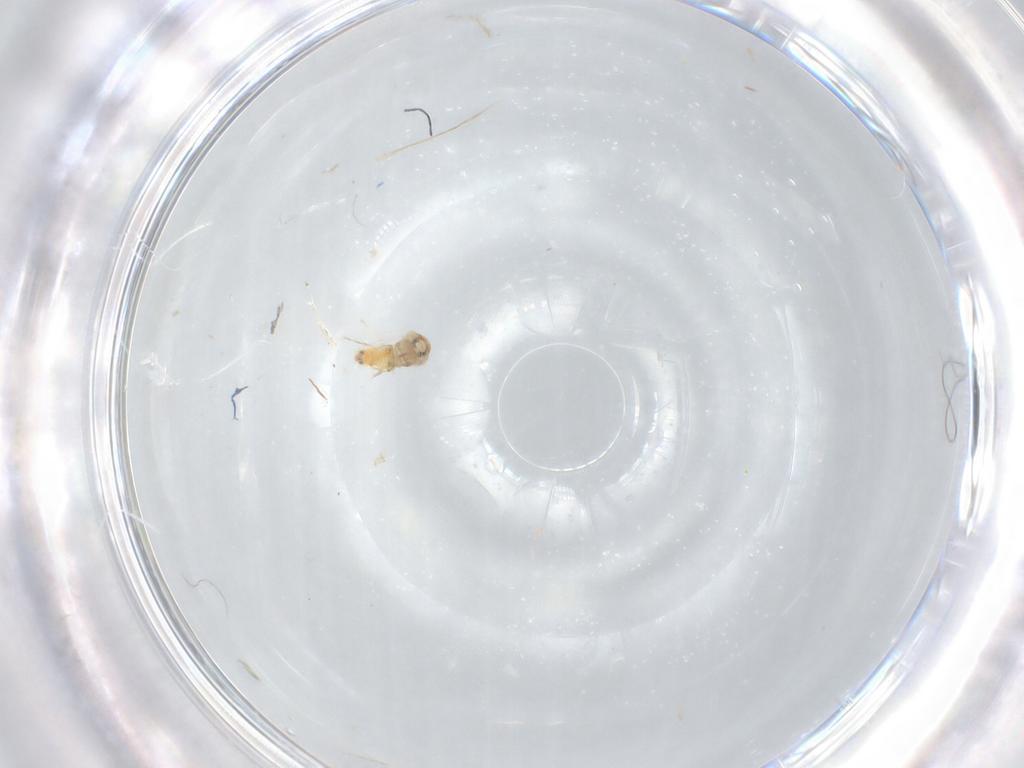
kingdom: Animalia
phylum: Arthropoda
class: Insecta
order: Hemiptera
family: Aleyrodidae
